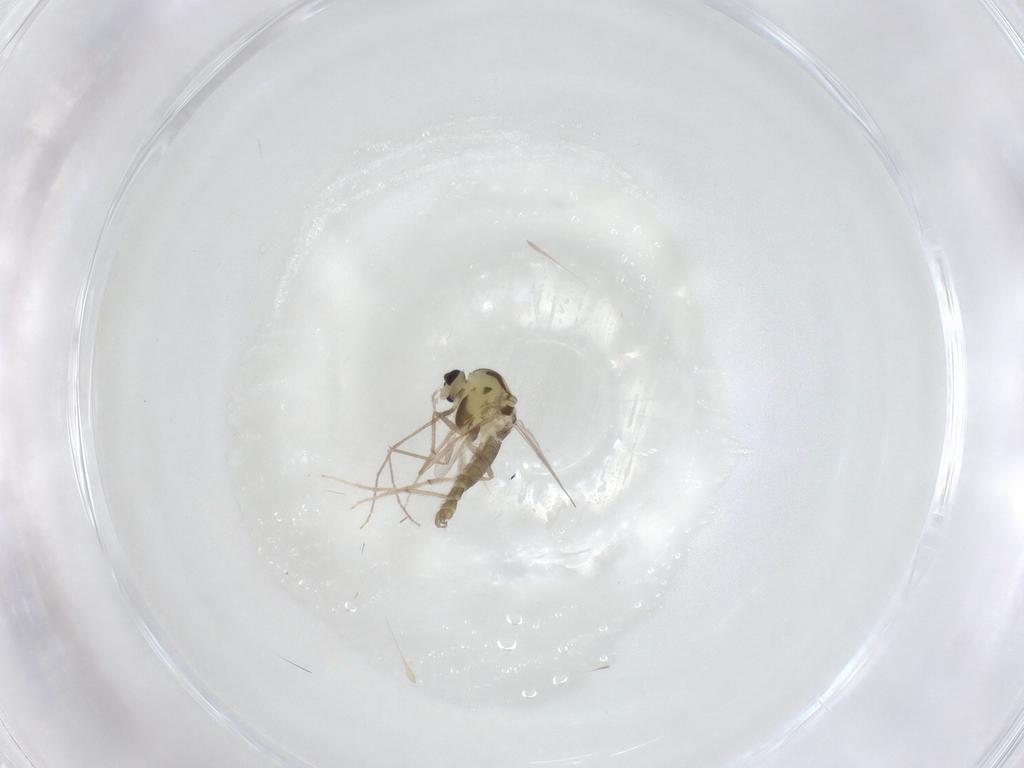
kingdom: Animalia
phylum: Arthropoda
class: Insecta
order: Diptera
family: Chironomidae
